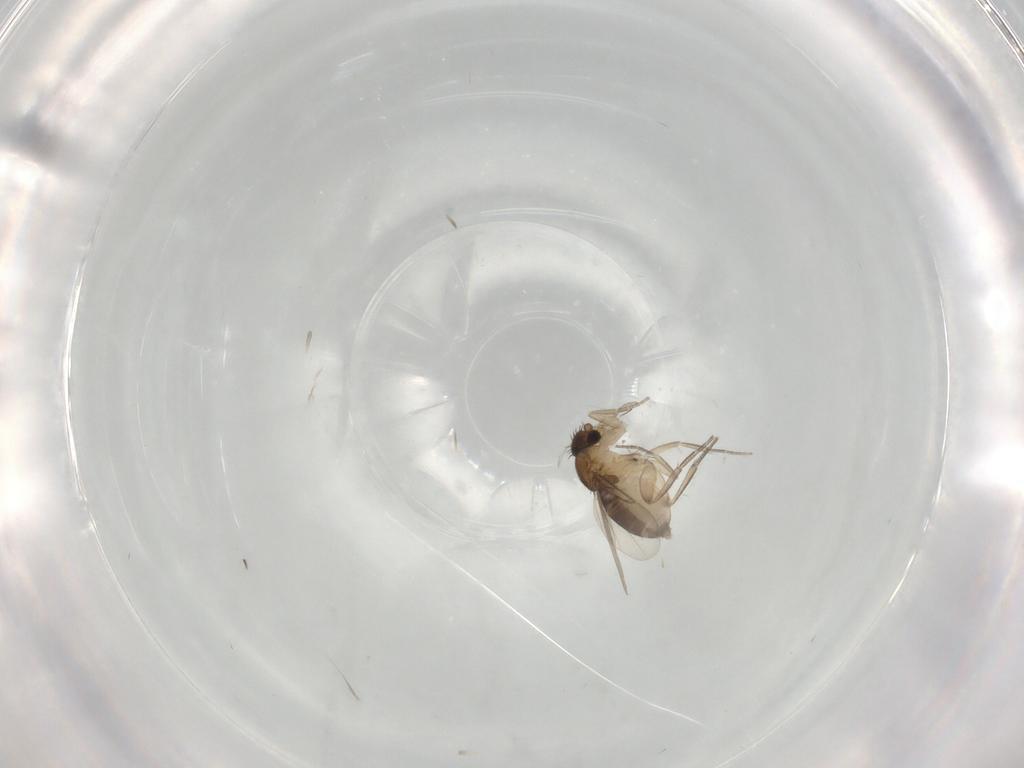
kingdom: Animalia
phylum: Arthropoda
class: Insecta
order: Diptera
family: Phoridae
